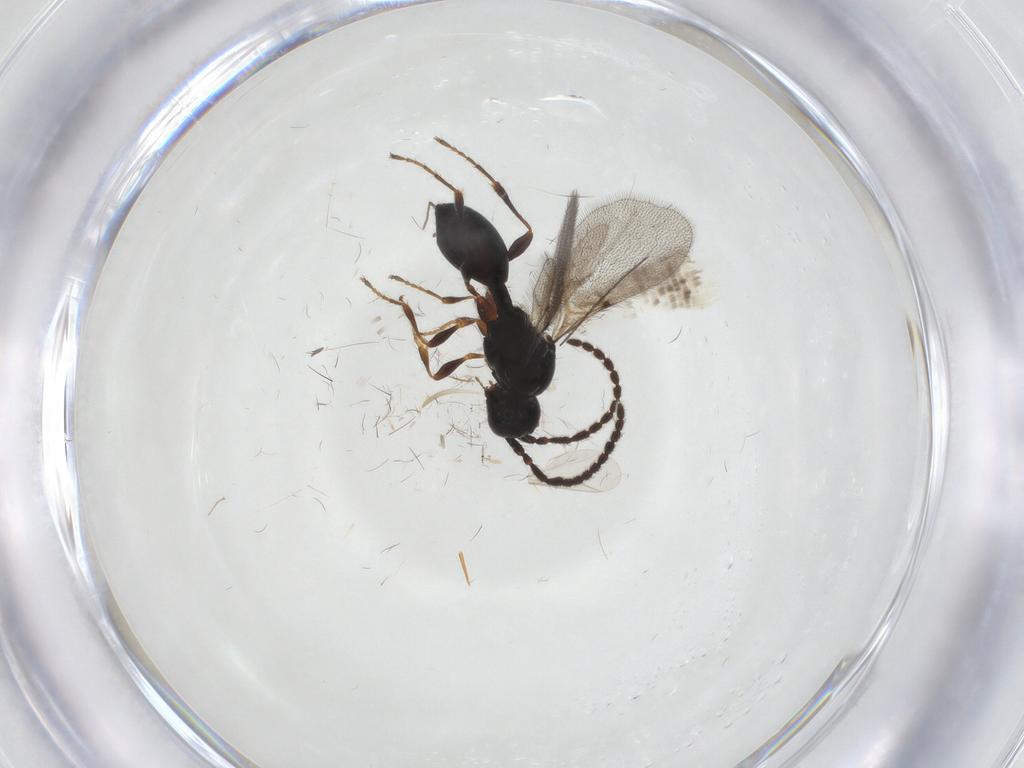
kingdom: Animalia
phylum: Arthropoda
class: Insecta
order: Hymenoptera
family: Diapriidae
